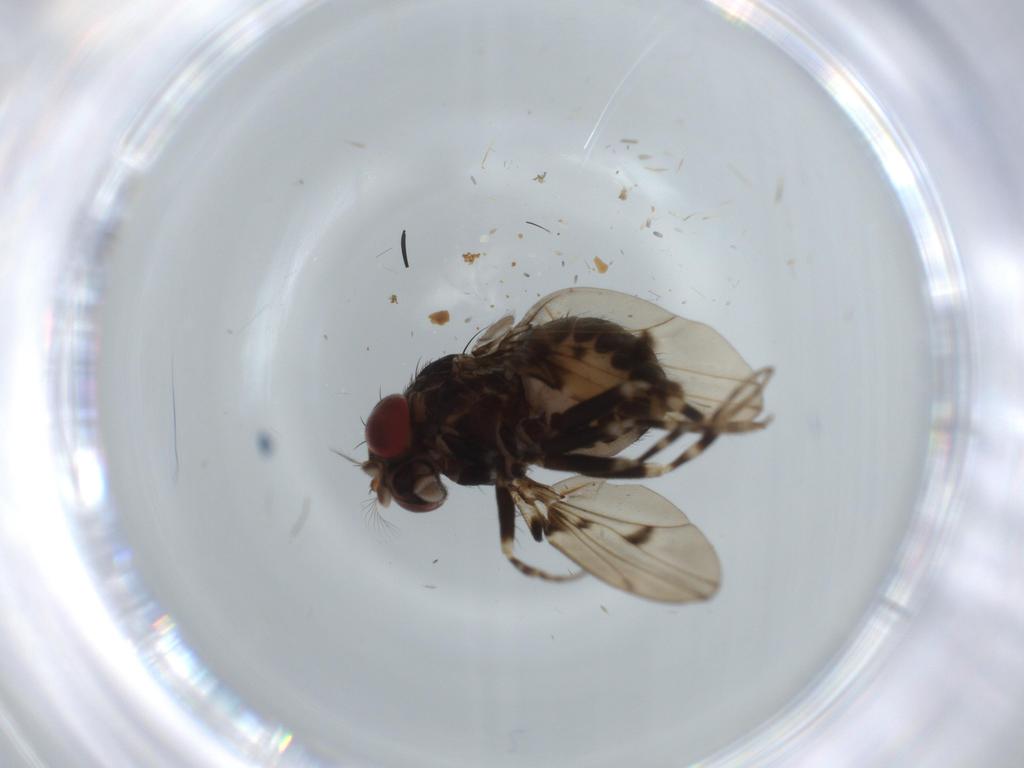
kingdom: Animalia
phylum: Arthropoda
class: Insecta
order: Diptera
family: Drosophilidae
